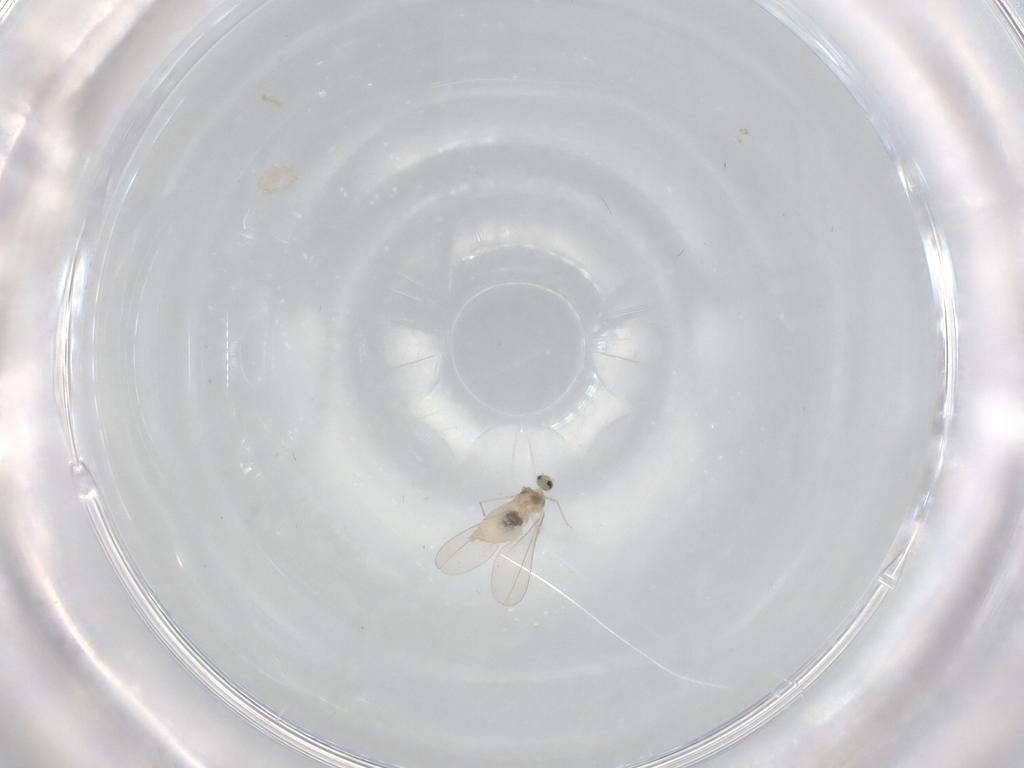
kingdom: Animalia
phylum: Arthropoda
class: Insecta
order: Diptera
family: Cecidomyiidae
